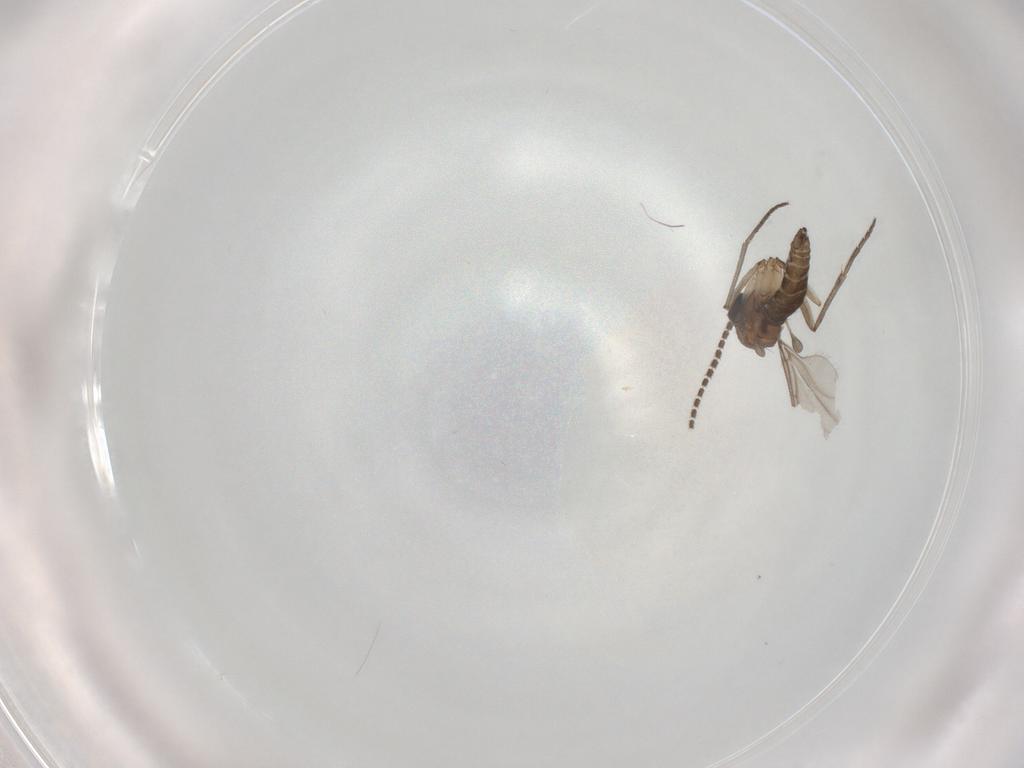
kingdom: Animalia
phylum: Arthropoda
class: Insecta
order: Diptera
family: Sciaridae
